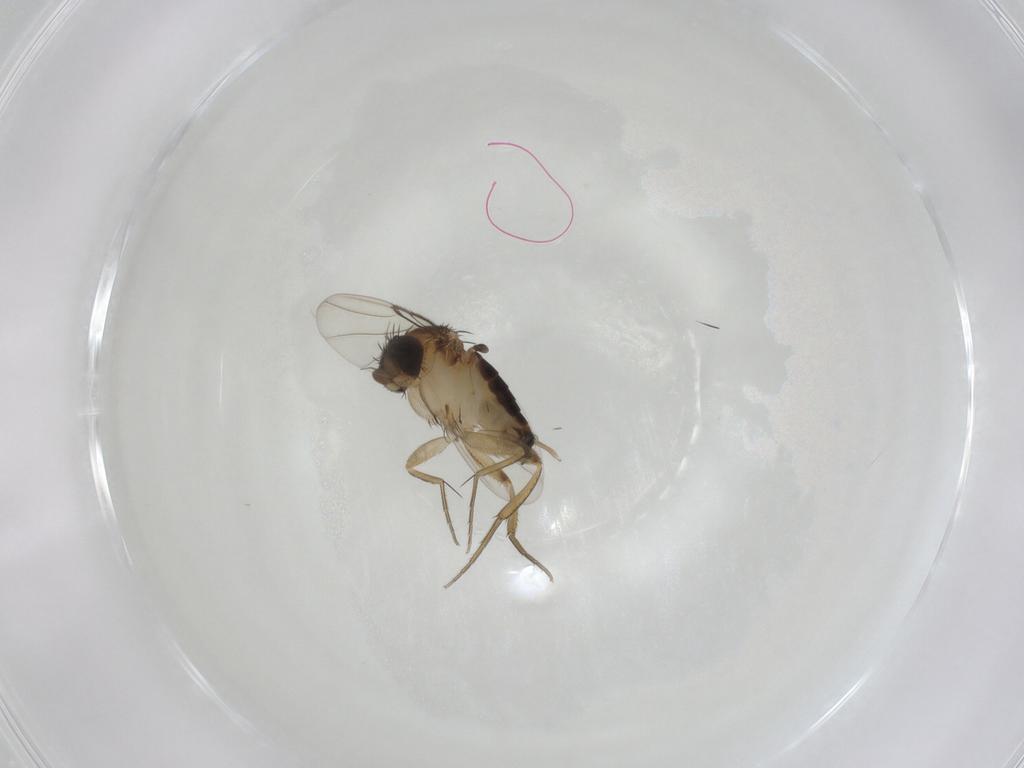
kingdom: Animalia
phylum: Arthropoda
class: Insecta
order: Diptera
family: Phoridae
